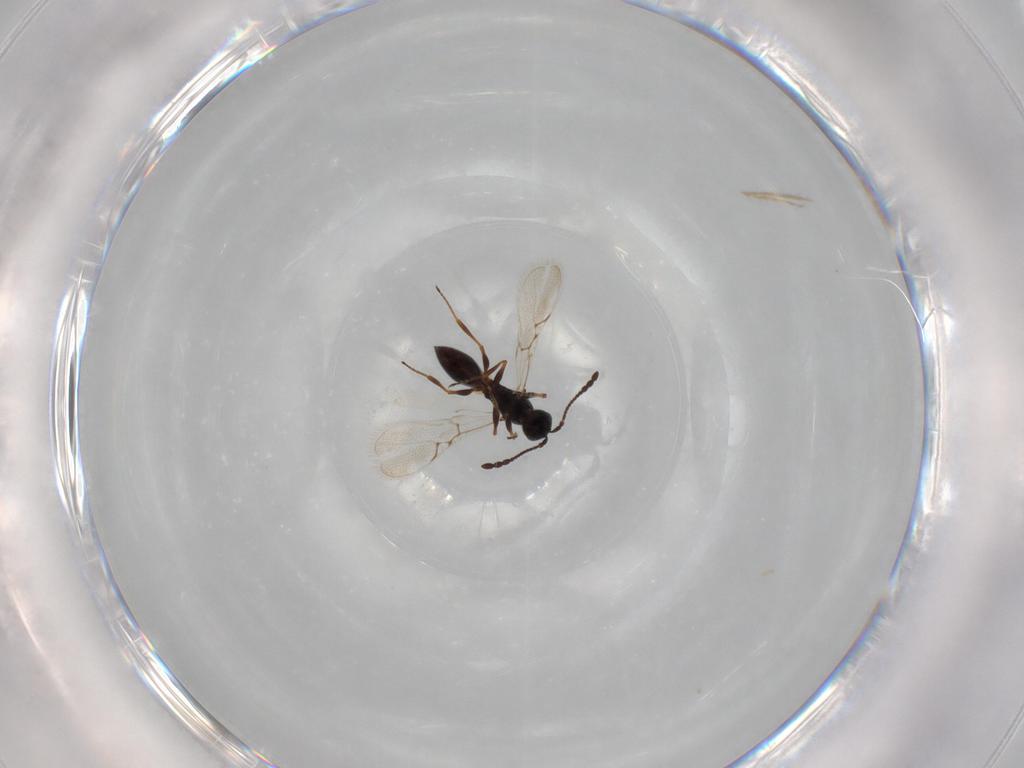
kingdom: Animalia
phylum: Arthropoda
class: Insecta
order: Hymenoptera
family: Figitidae
